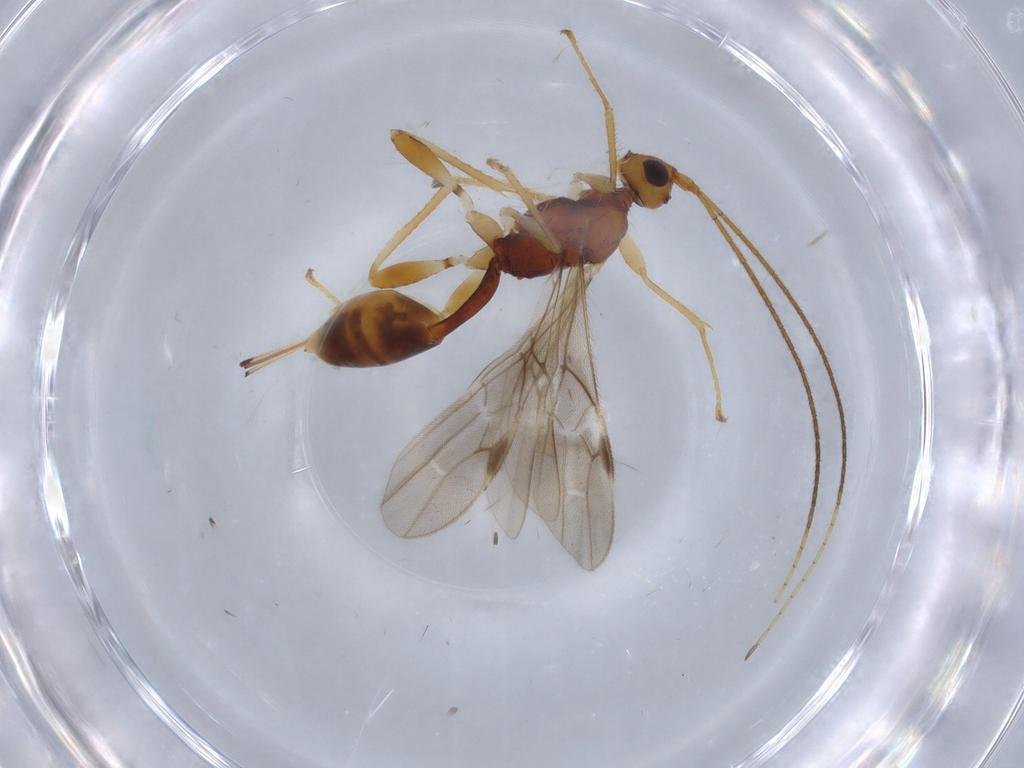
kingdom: Animalia
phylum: Arthropoda
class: Insecta
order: Hymenoptera
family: Braconidae
